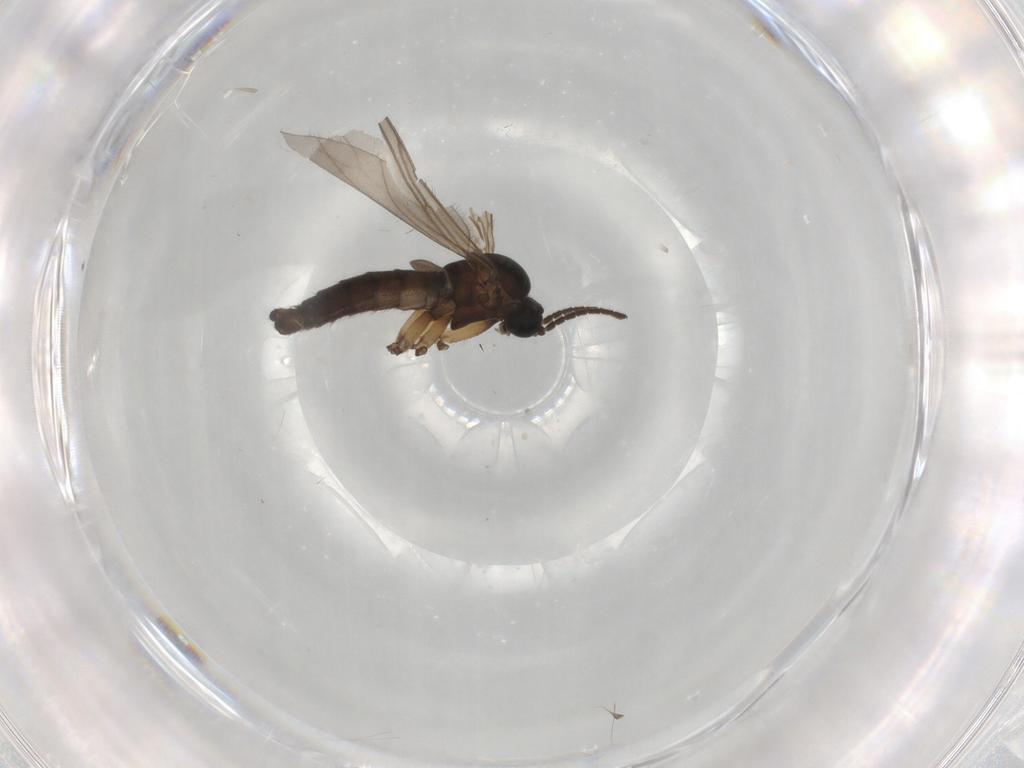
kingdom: Animalia
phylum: Arthropoda
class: Insecta
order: Diptera
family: Sciaridae
